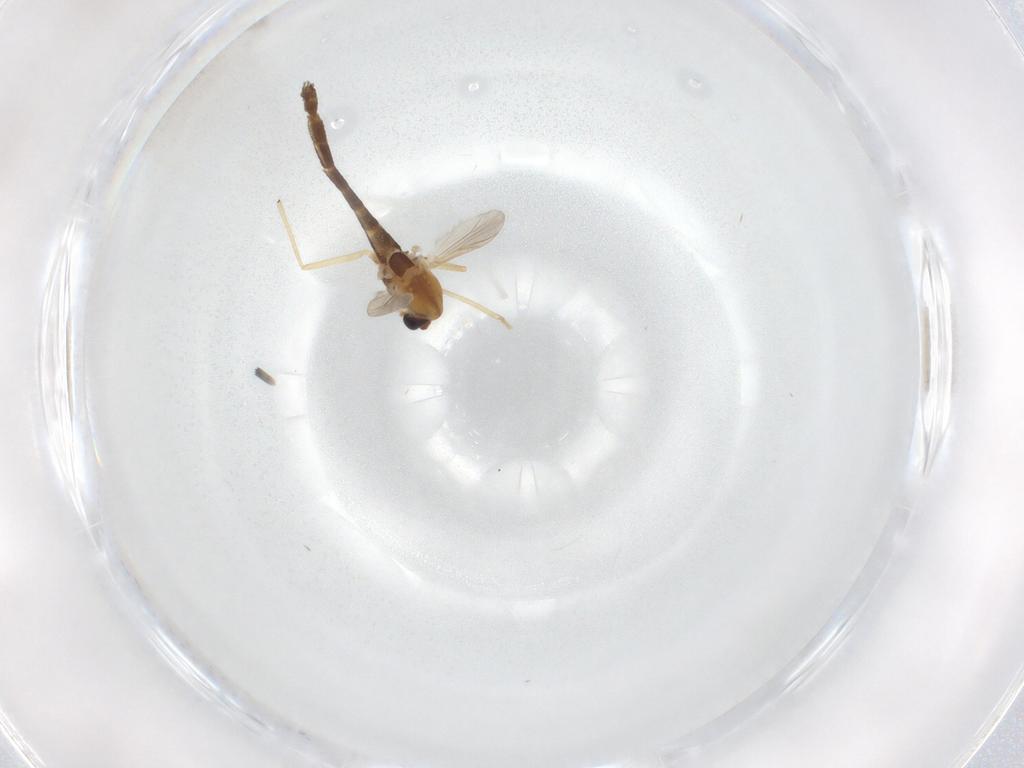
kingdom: Animalia
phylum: Arthropoda
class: Insecta
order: Diptera
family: Chironomidae
